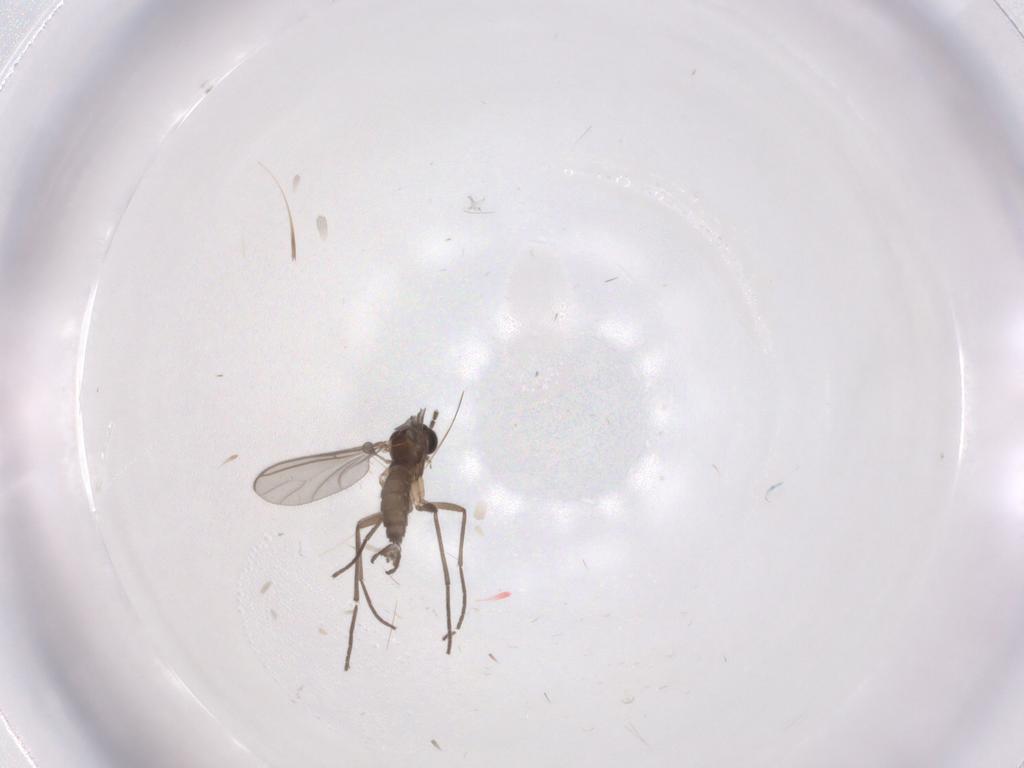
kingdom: Animalia
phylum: Arthropoda
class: Insecta
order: Diptera
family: Sciaridae
